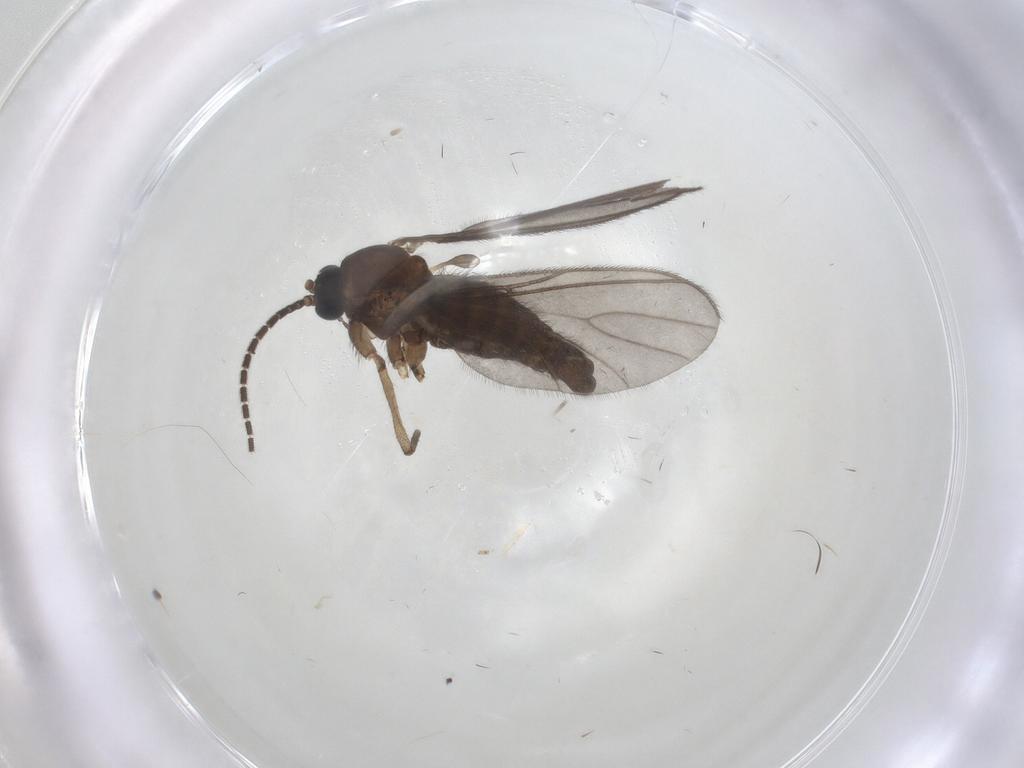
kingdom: Animalia
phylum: Arthropoda
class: Insecta
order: Diptera
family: Sciaridae
